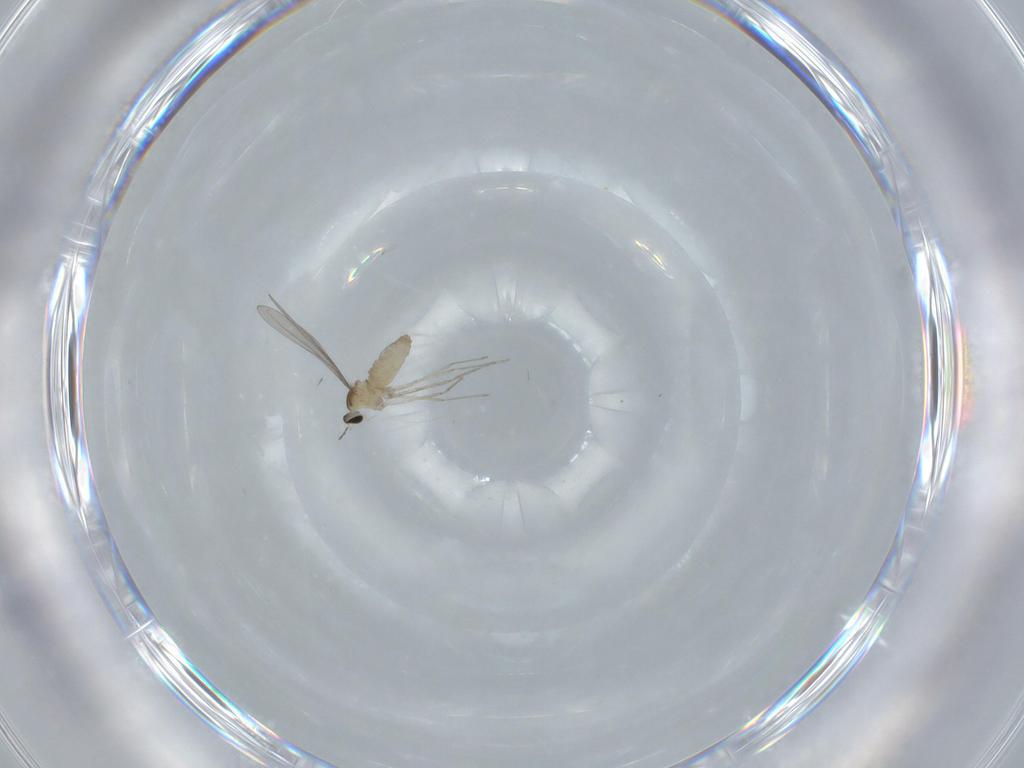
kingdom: Animalia
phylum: Arthropoda
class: Insecta
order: Diptera
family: Cecidomyiidae
